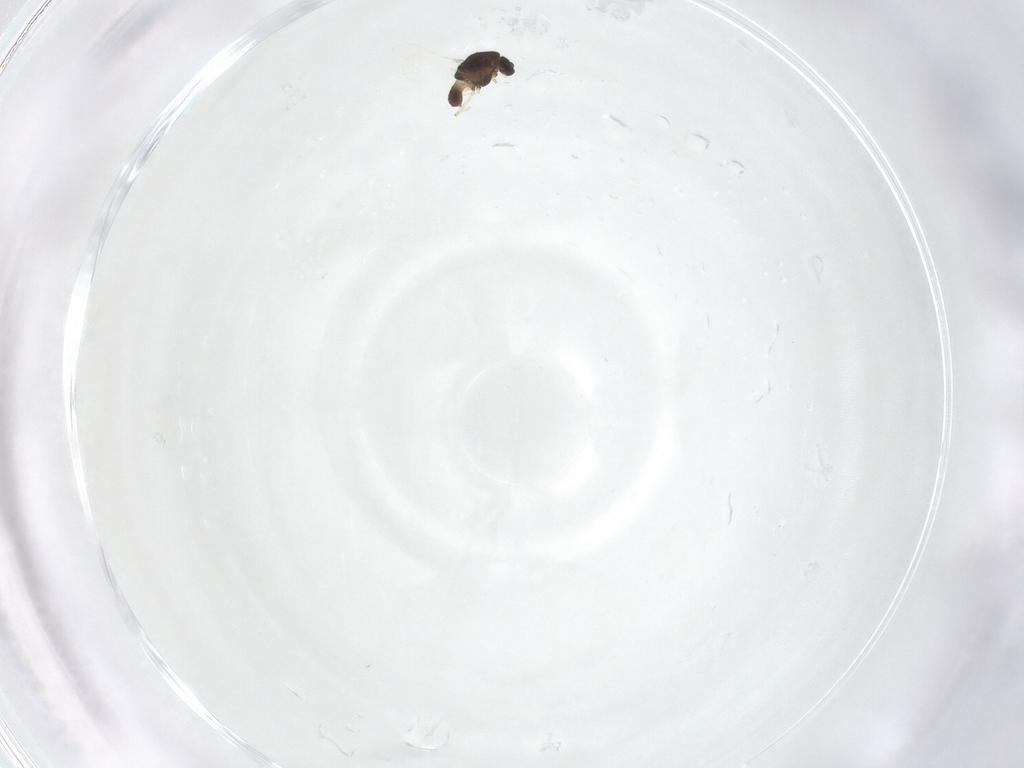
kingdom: Animalia
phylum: Arthropoda
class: Insecta
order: Diptera
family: Chironomidae
